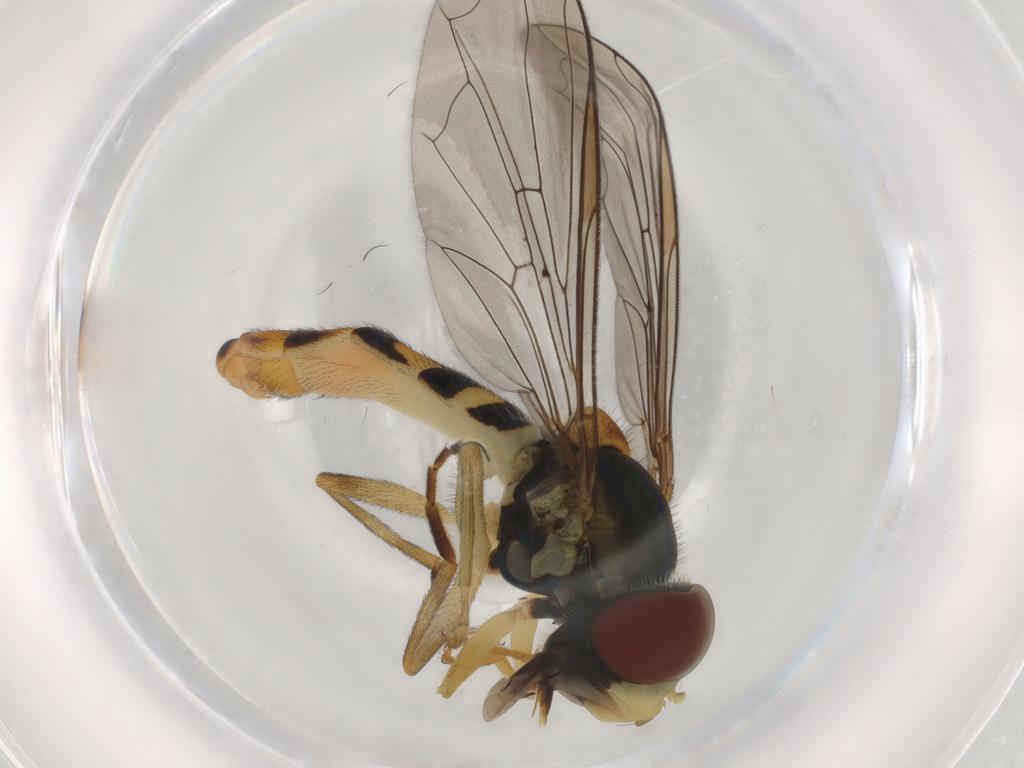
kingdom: Animalia
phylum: Arthropoda
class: Insecta
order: Diptera
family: Syrphidae
